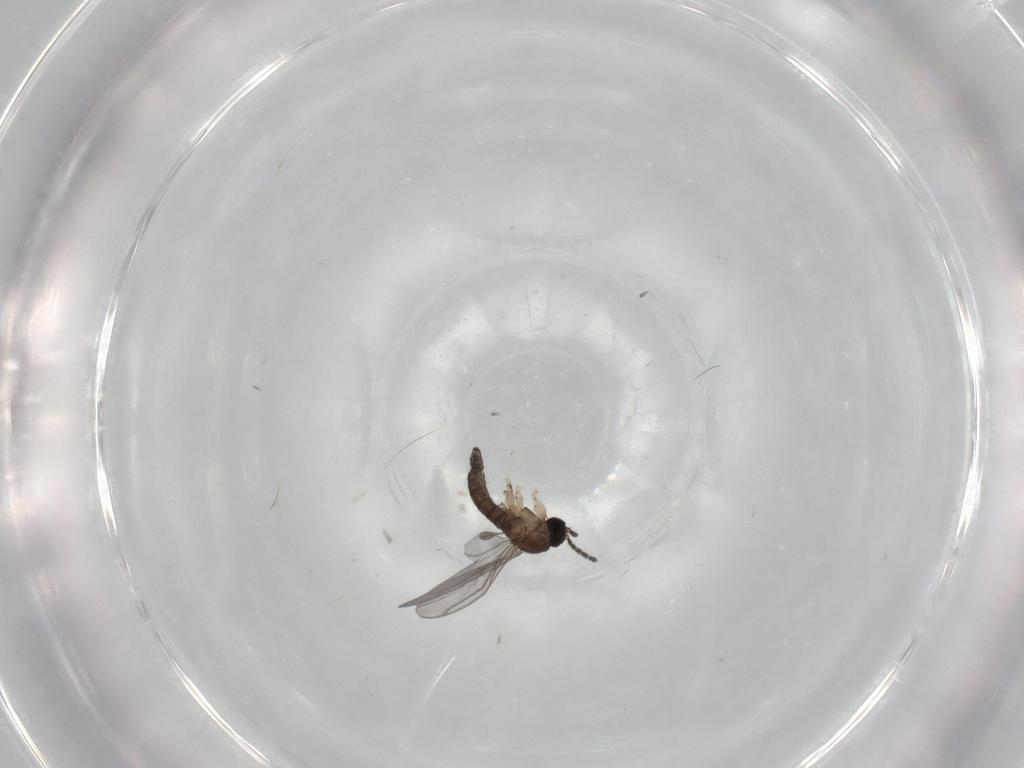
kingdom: Animalia
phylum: Arthropoda
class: Insecta
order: Diptera
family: Sciaridae
